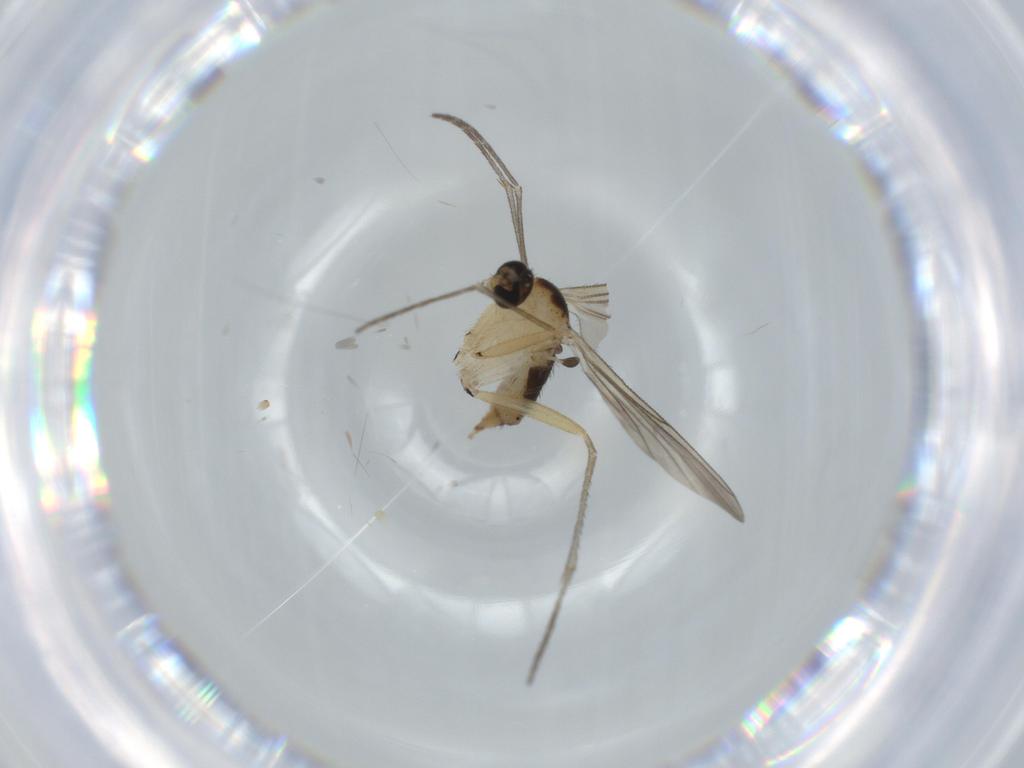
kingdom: Animalia
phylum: Arthropoda
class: Insecta
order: Diptera
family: Sciaridae
